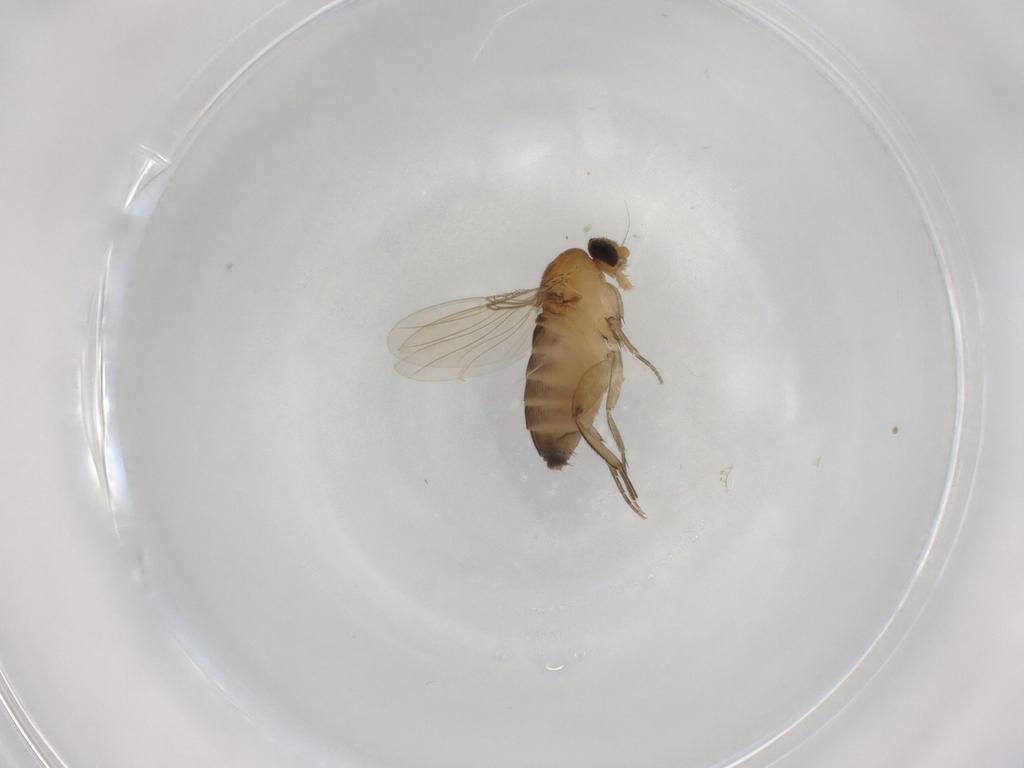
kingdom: Animalia
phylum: Arthropoda
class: Insecta
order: Diptera
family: Phoridae
